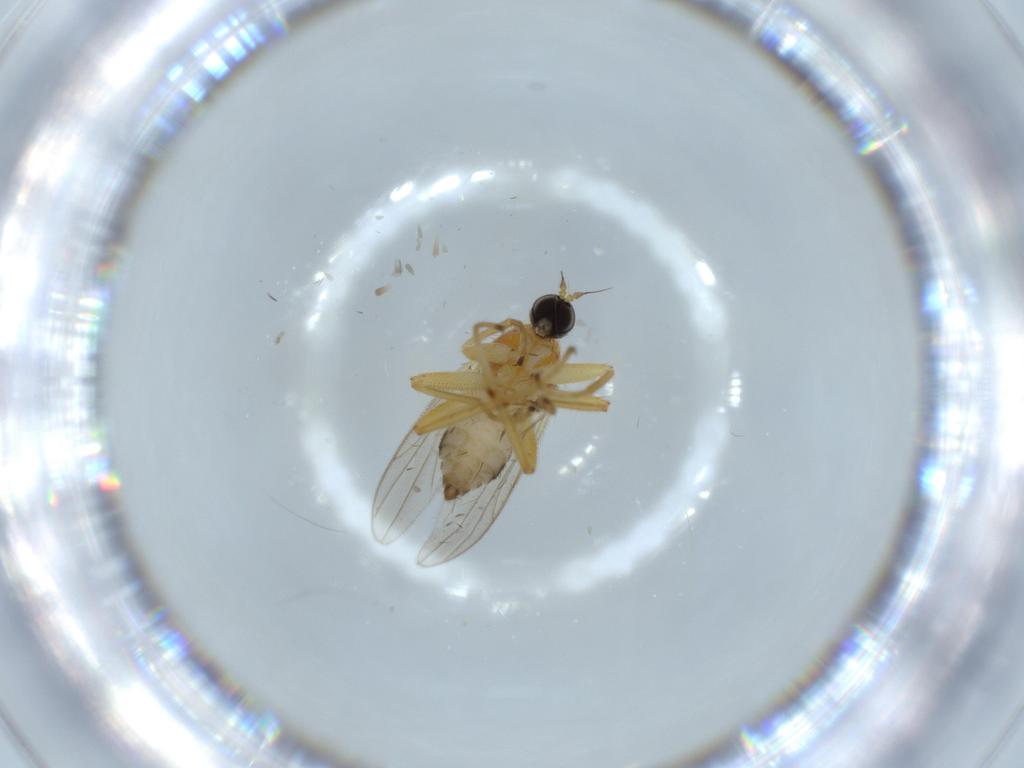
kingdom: Animalia
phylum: Arthropoda
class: Insecta
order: Diptera
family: Hybotidae
